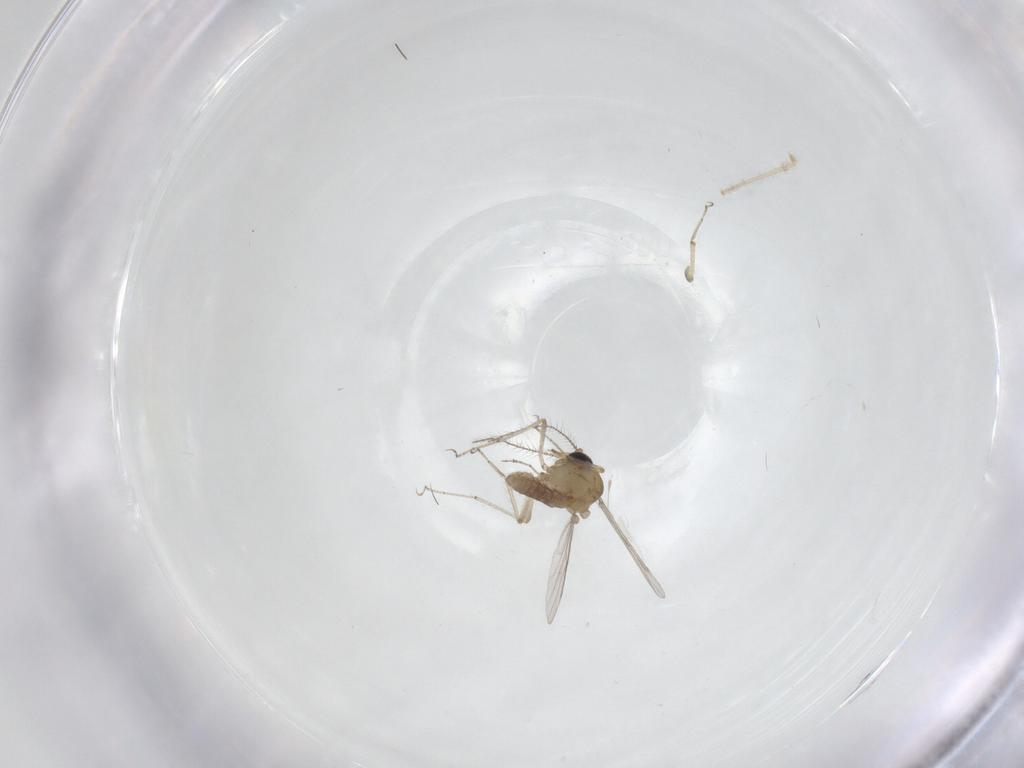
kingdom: Animalia
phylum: Arthropoda
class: Insecta
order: Diptera
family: Cecidomyiidae
